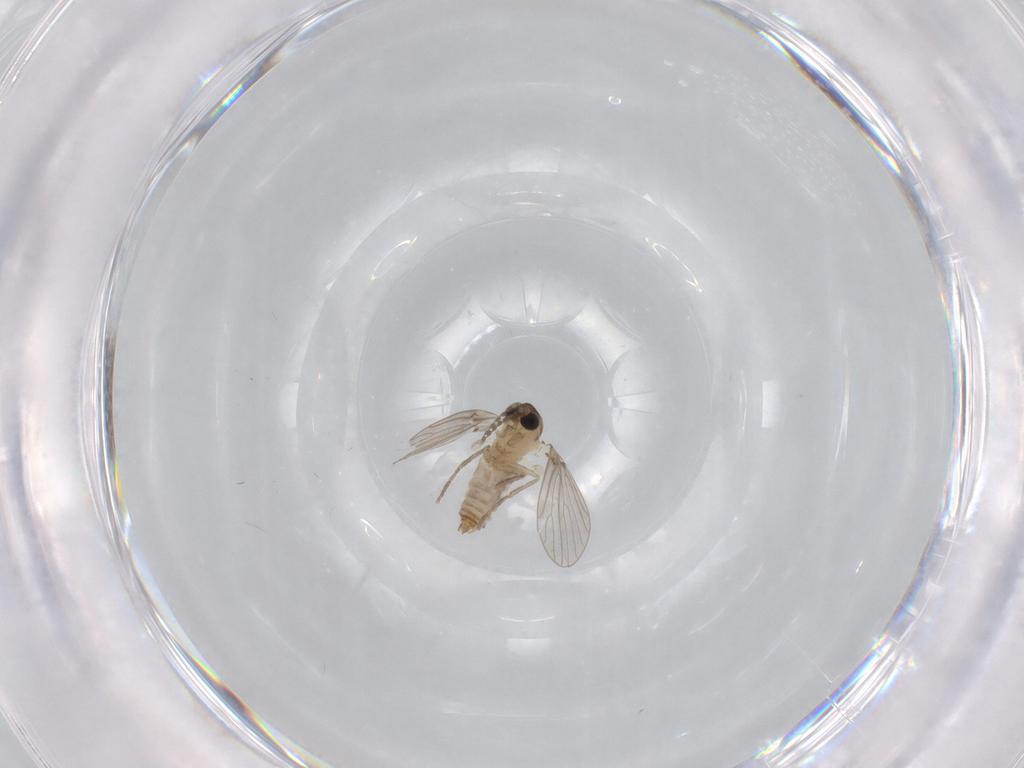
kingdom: Animalia
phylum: Arthropoda
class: Insecta
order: Diptera
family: Psychodidae
